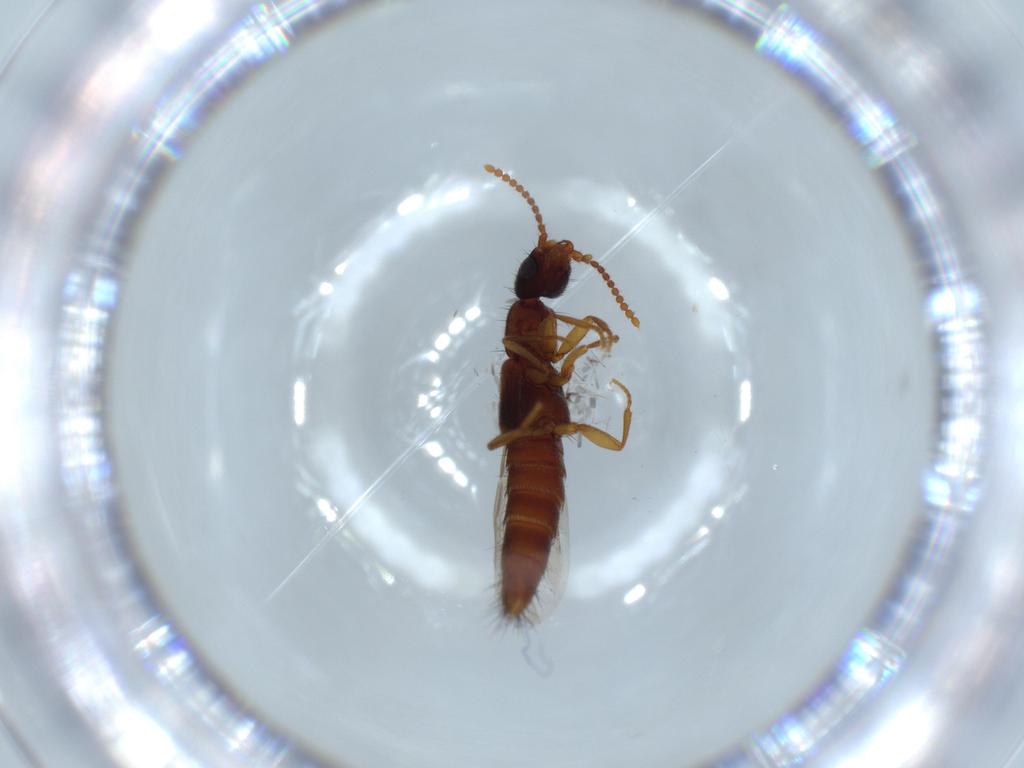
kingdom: Animalia
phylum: Arthropoda
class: Insecta
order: Coleoptera
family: Staphylinidae
